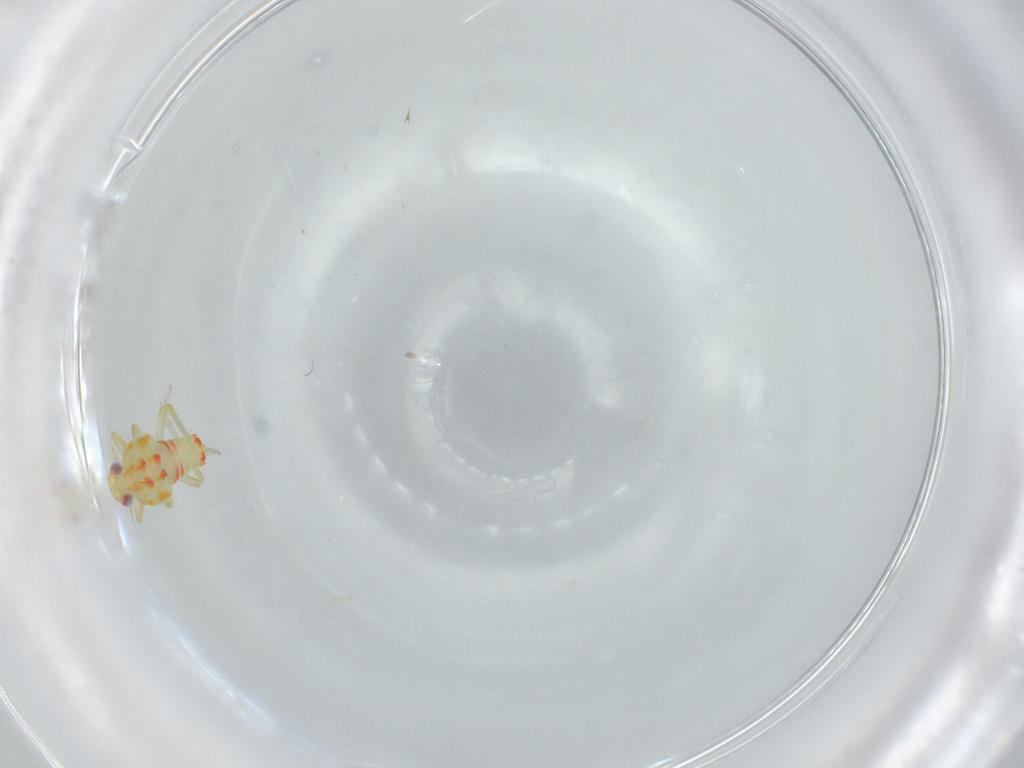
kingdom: Animalia
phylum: Arthropoda
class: Insecta
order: Hemiptera
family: Tropiduchidae
